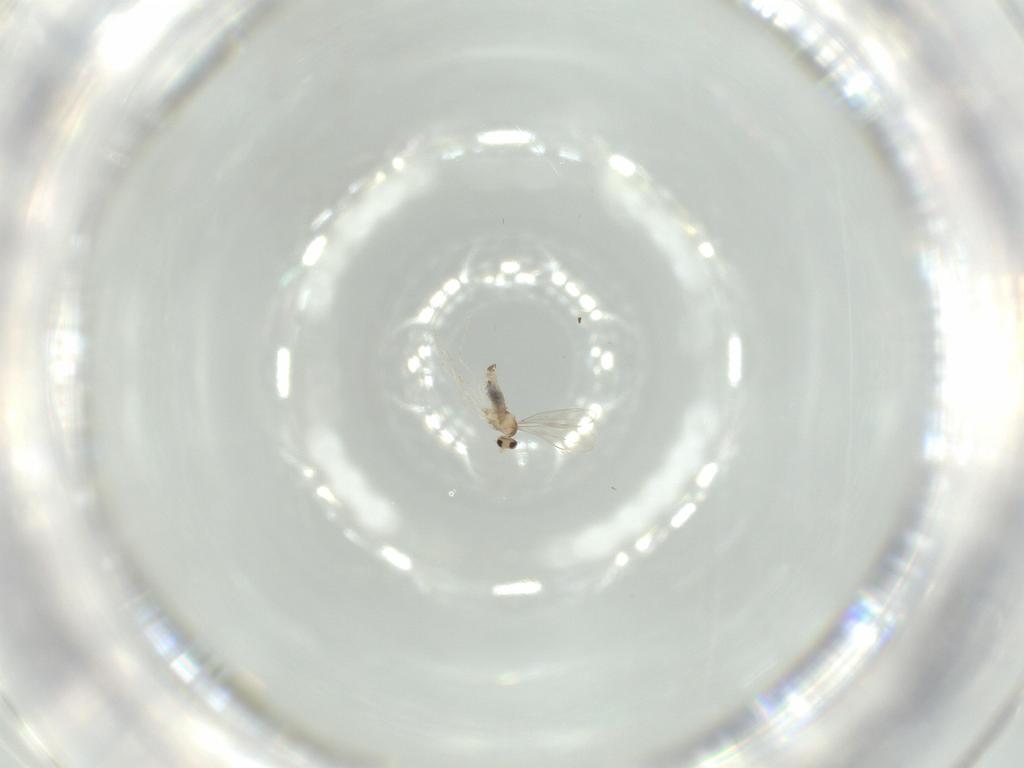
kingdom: Animalia
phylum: Arthropoda
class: Insecta
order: Diptera
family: Cecidomyiidae
